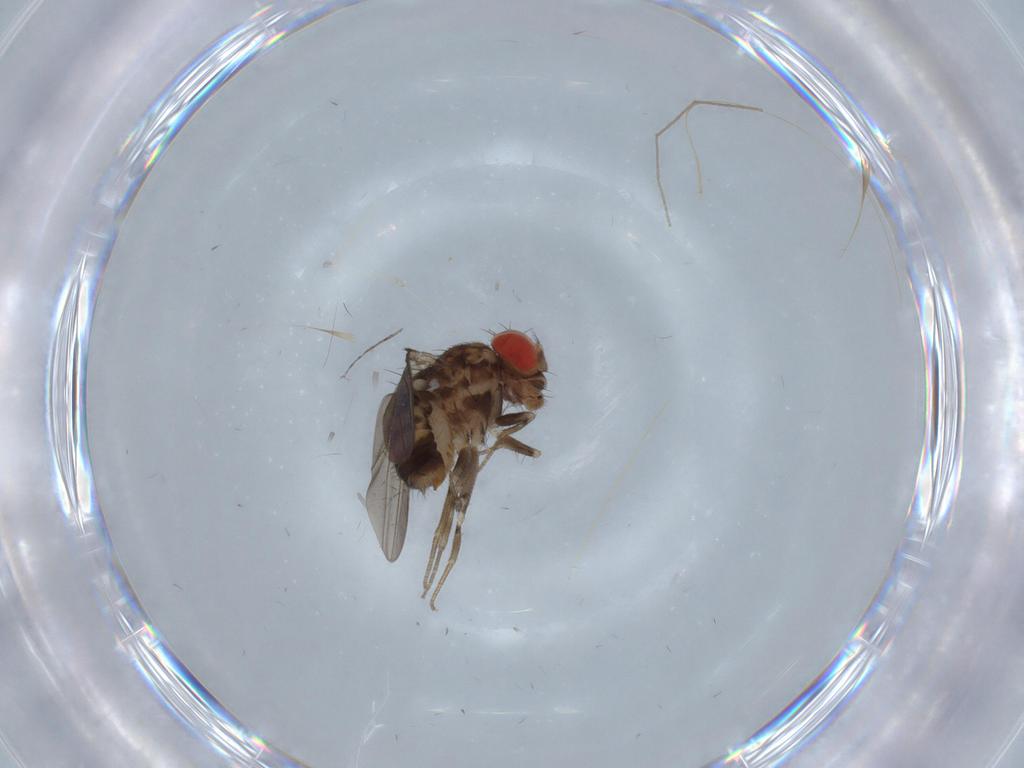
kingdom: Animalia
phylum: Arthropoda
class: Insecta
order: Diptera
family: Drosophilidae
